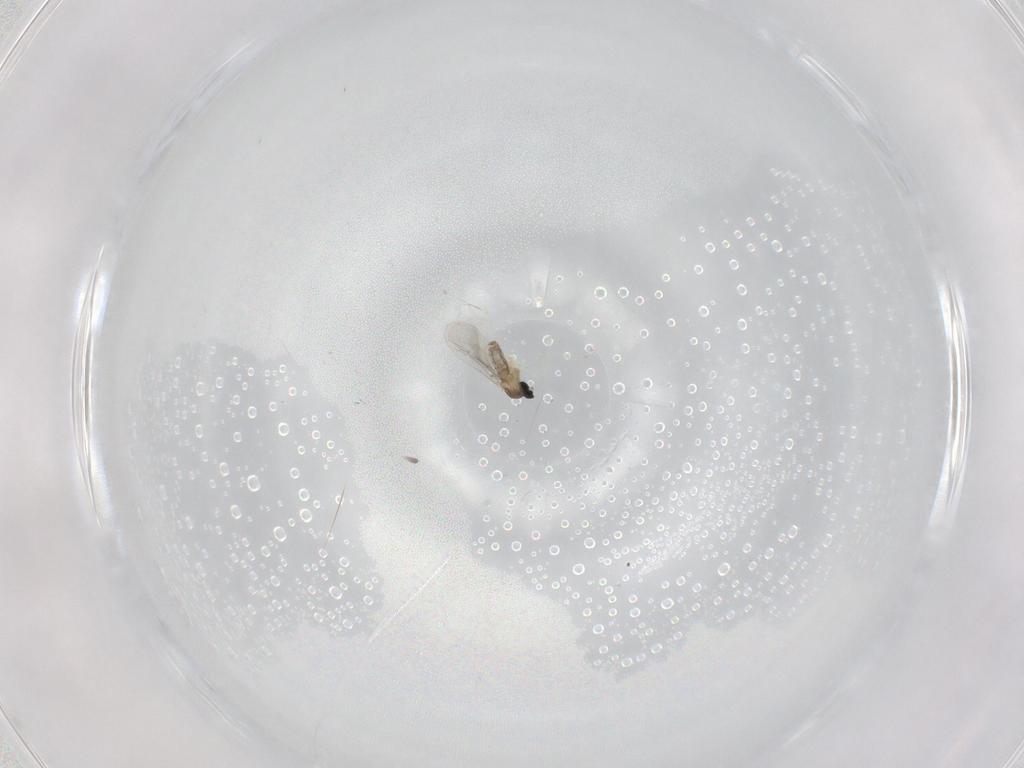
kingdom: Animalia
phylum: Arthropoda
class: Insecta
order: Diptera
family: Cecidomyiidae
